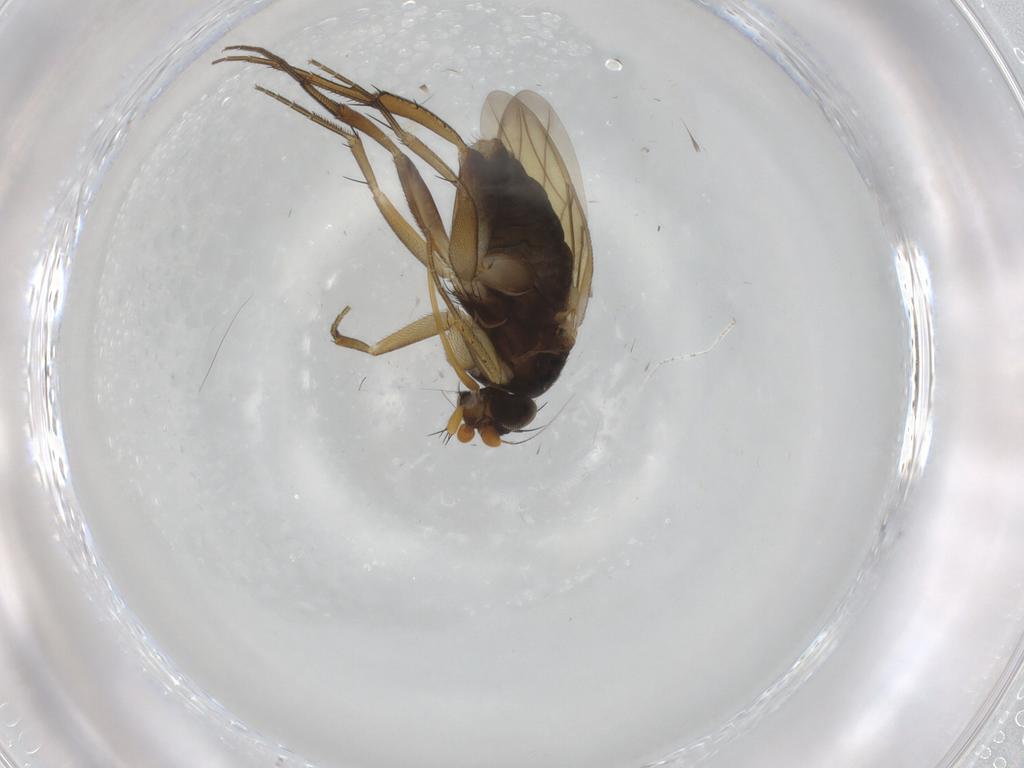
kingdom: Animalia
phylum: Arthropoda
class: Insecta
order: Diptera
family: Phoridae
